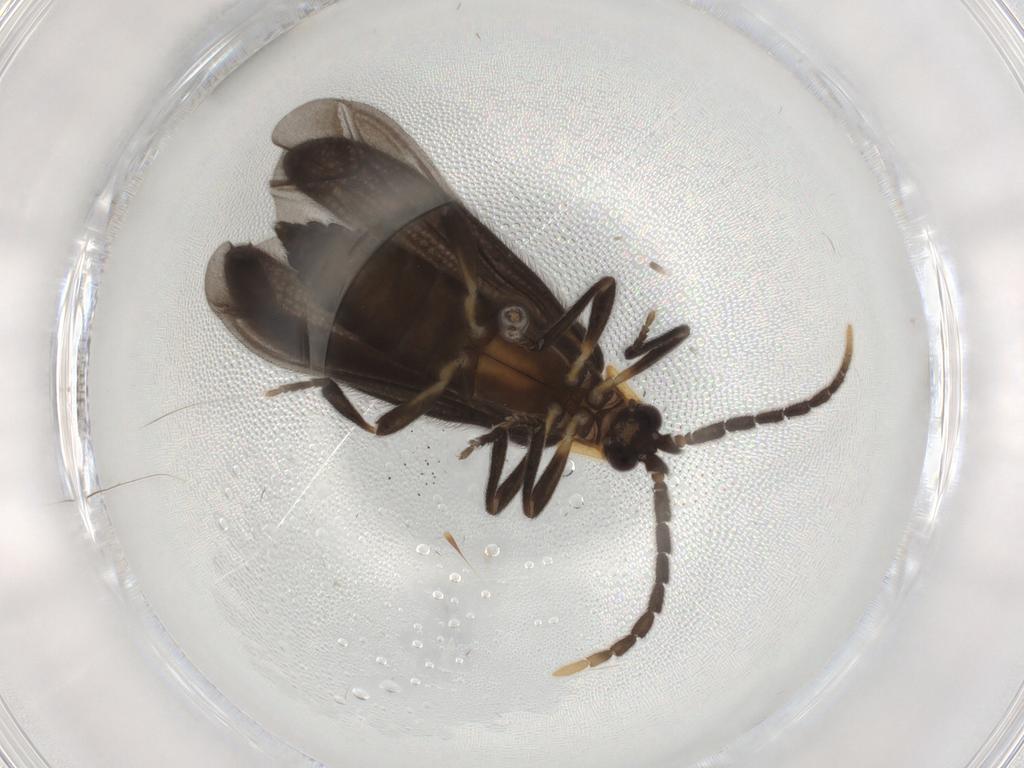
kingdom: Animalia
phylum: Arthropoda
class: Insecta
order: Coleoptera
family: Lycidae
